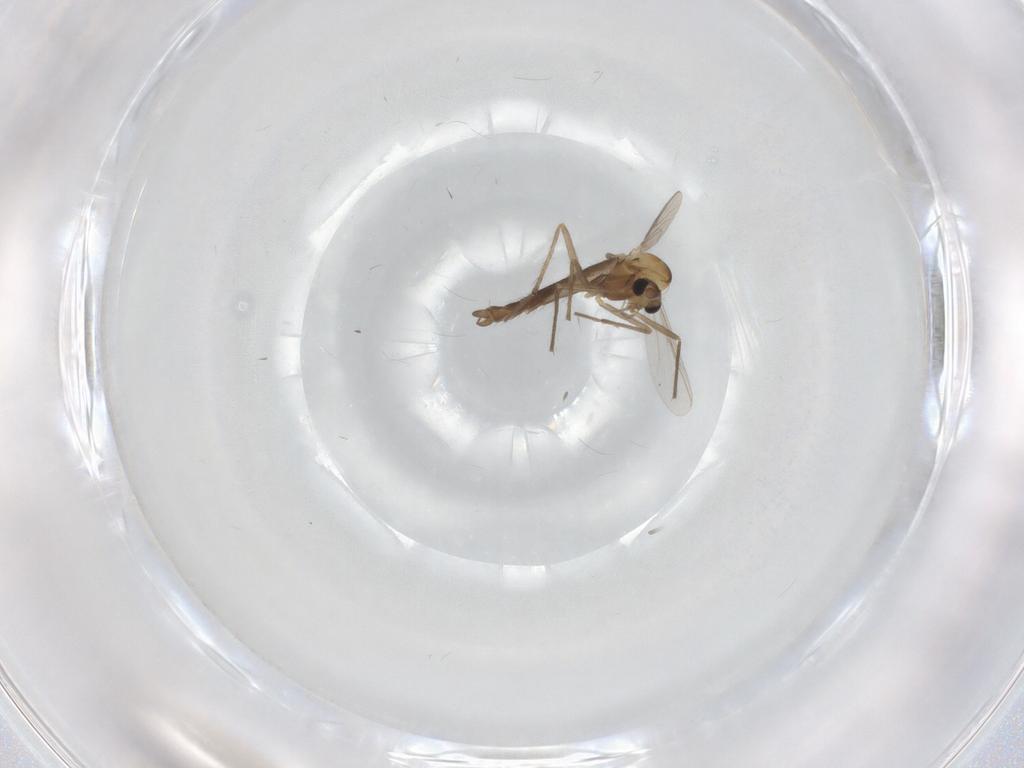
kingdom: Animalia
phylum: Arthropoda
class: Insecta
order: Diptera
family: Chironomidae
